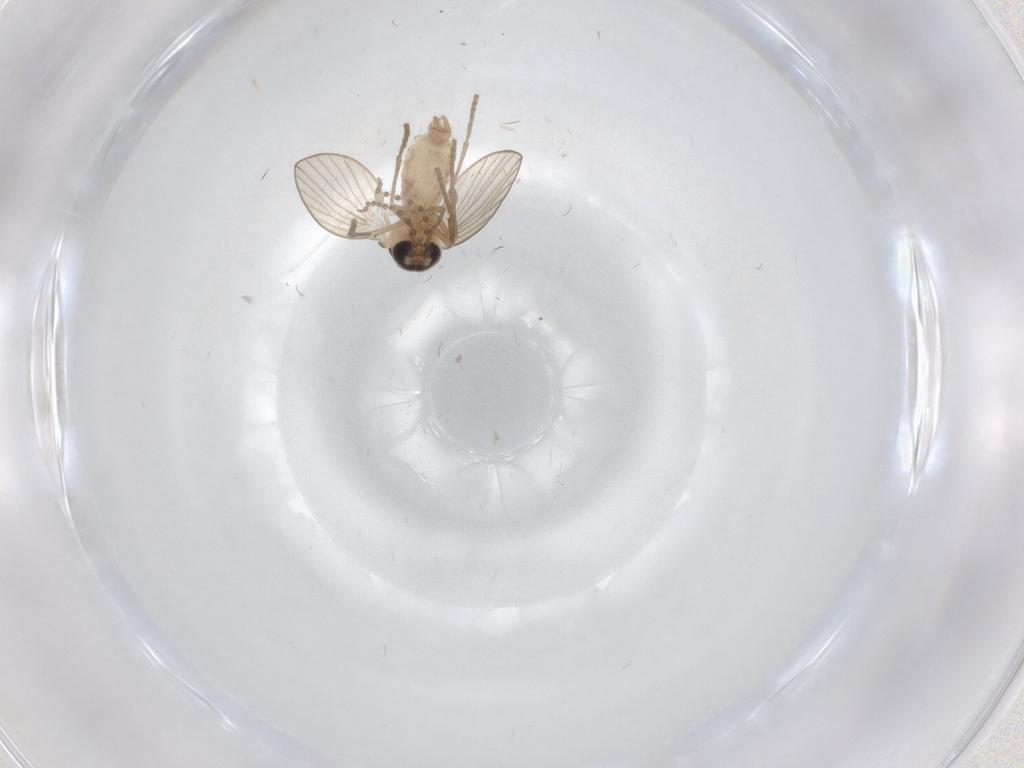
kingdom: Animalia
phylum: Arthropoda
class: Insecta
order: Diptera
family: Psychodidae
